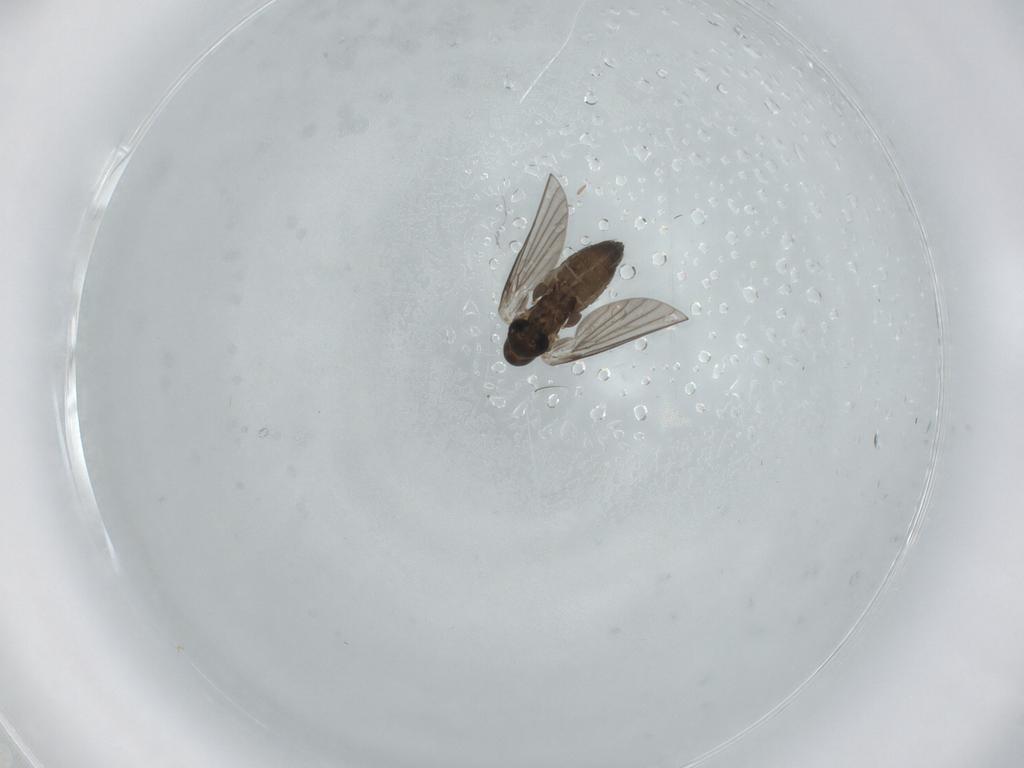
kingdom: Animalia
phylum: Arthropoda
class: Insecta
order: Diptera
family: Cecidomyiidae
